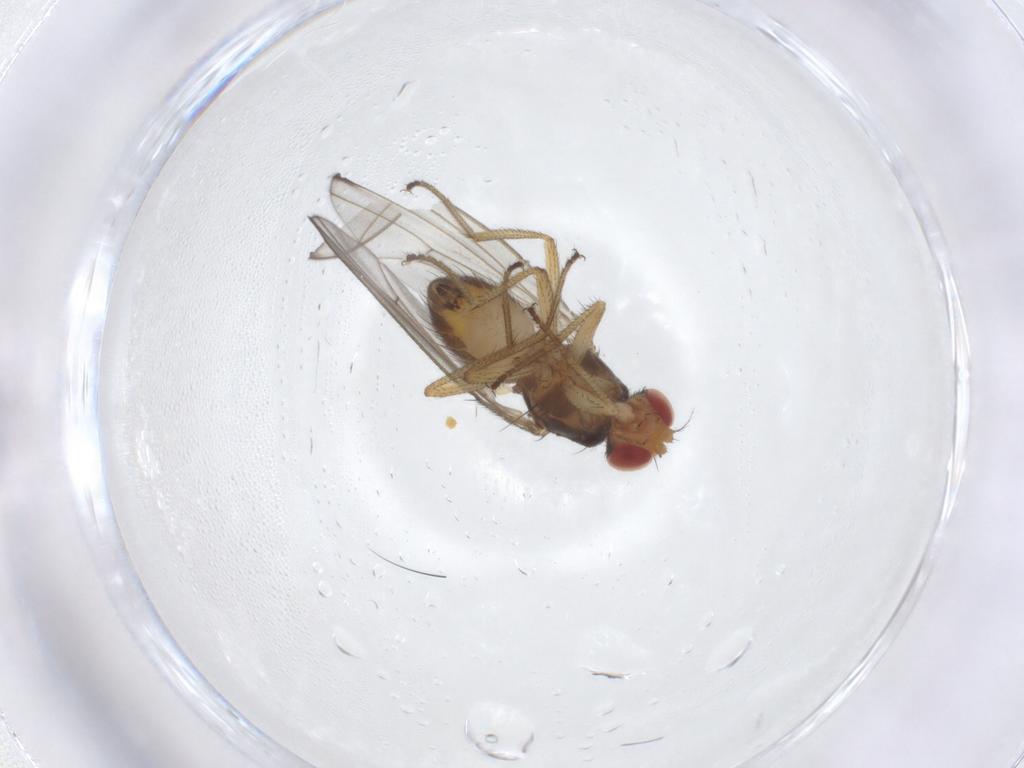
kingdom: Animalia
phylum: Arthropoda
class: Insecta
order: Diptera
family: Drosophilidae
